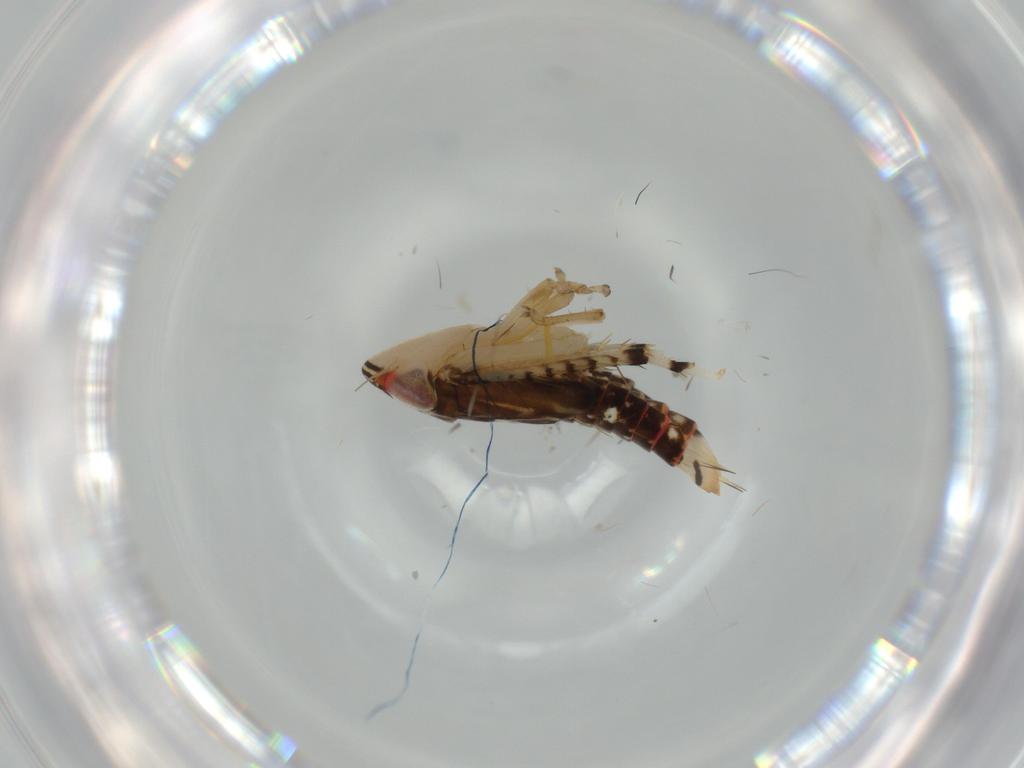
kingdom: Animalia
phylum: Arthropoda
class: Insecta
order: Hemiptera
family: Cicadellidae
